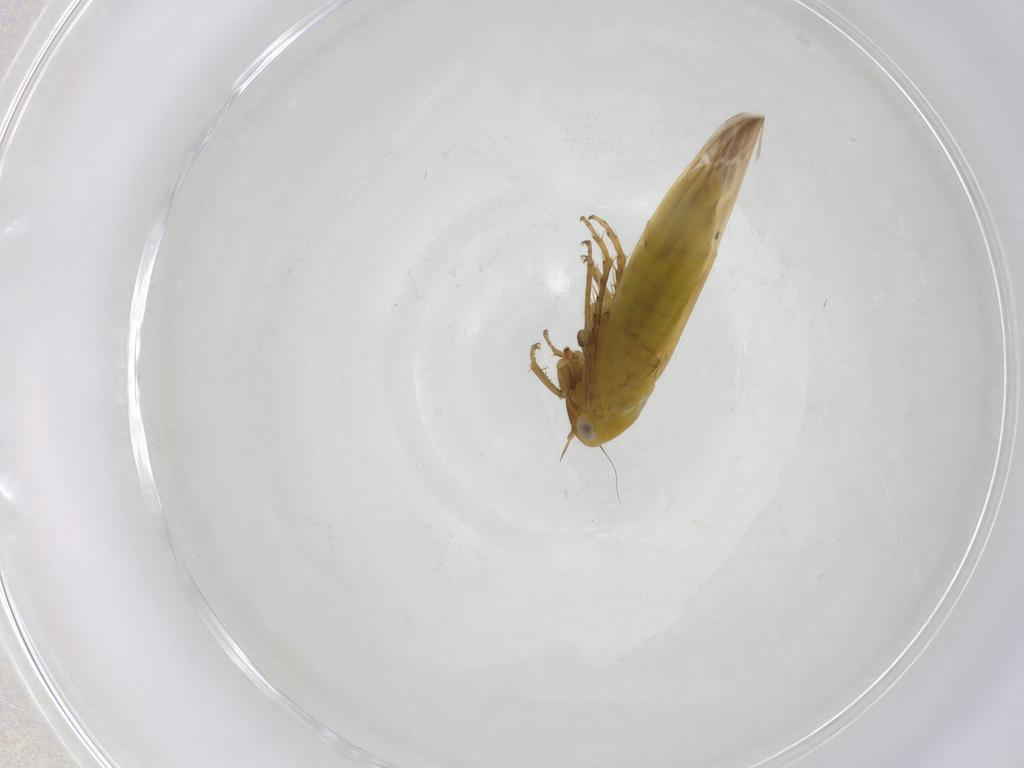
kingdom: Animalia
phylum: Arthropoda
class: Insecta
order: Hemiptera
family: Cicadellidae
